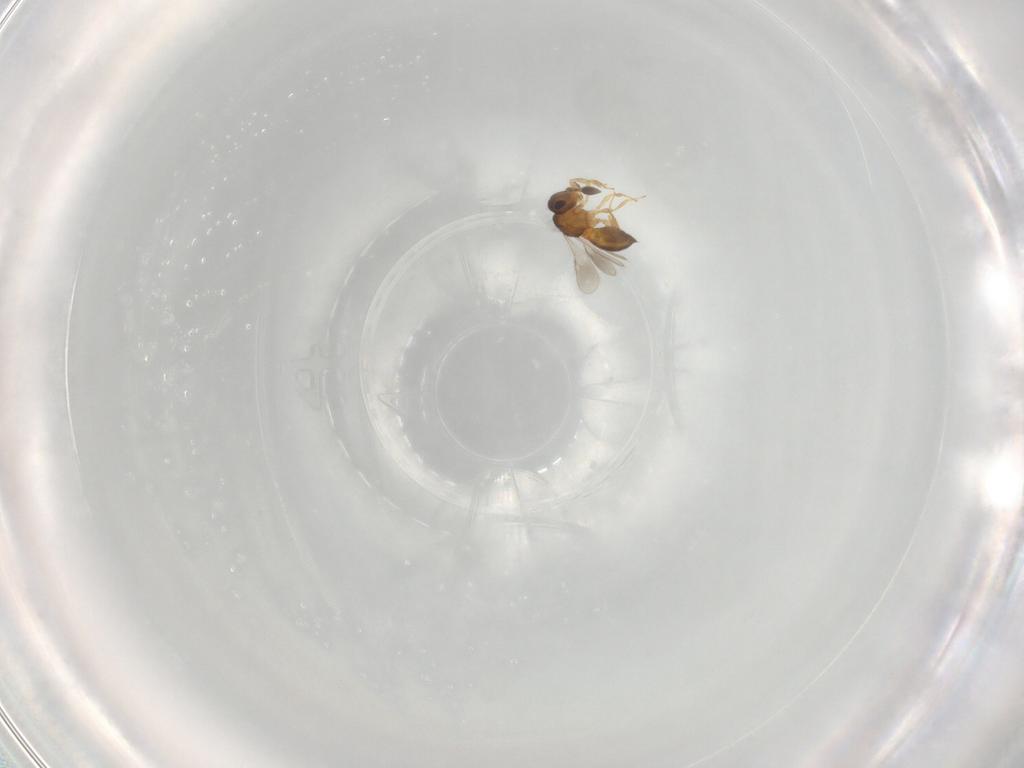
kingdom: Animalia
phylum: Arthropoda
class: Insecta
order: Hymenoptera
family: Scelionidae
